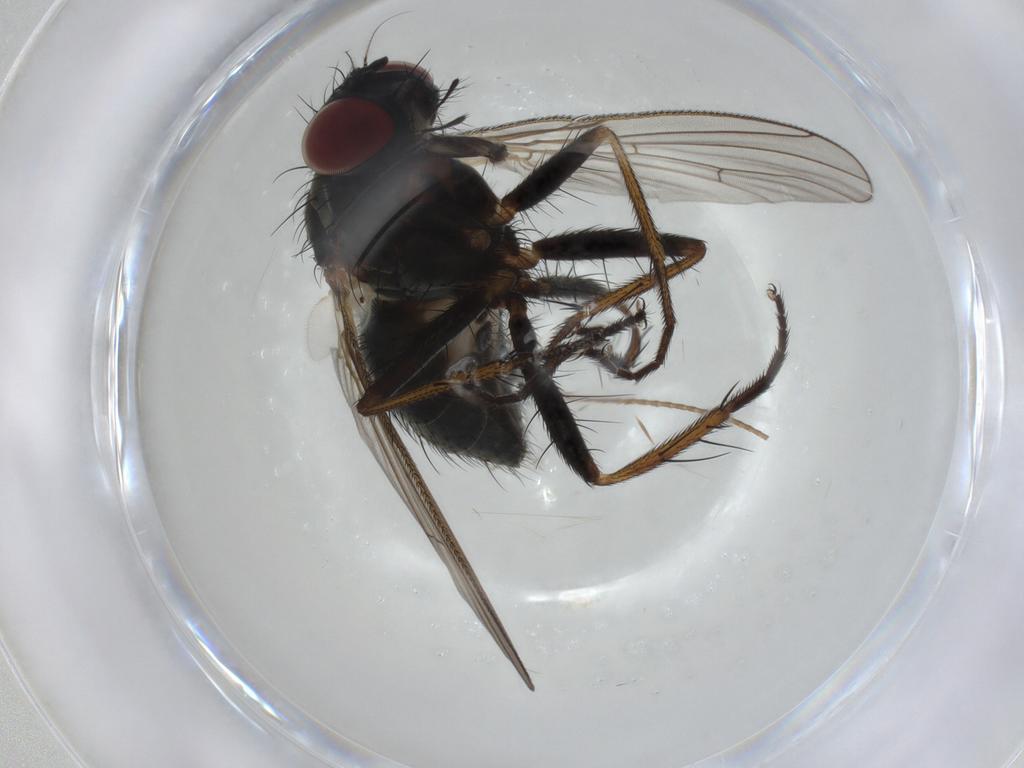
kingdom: Animalia
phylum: Arthropoda
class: Insecta
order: Diptera
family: Muscidae
